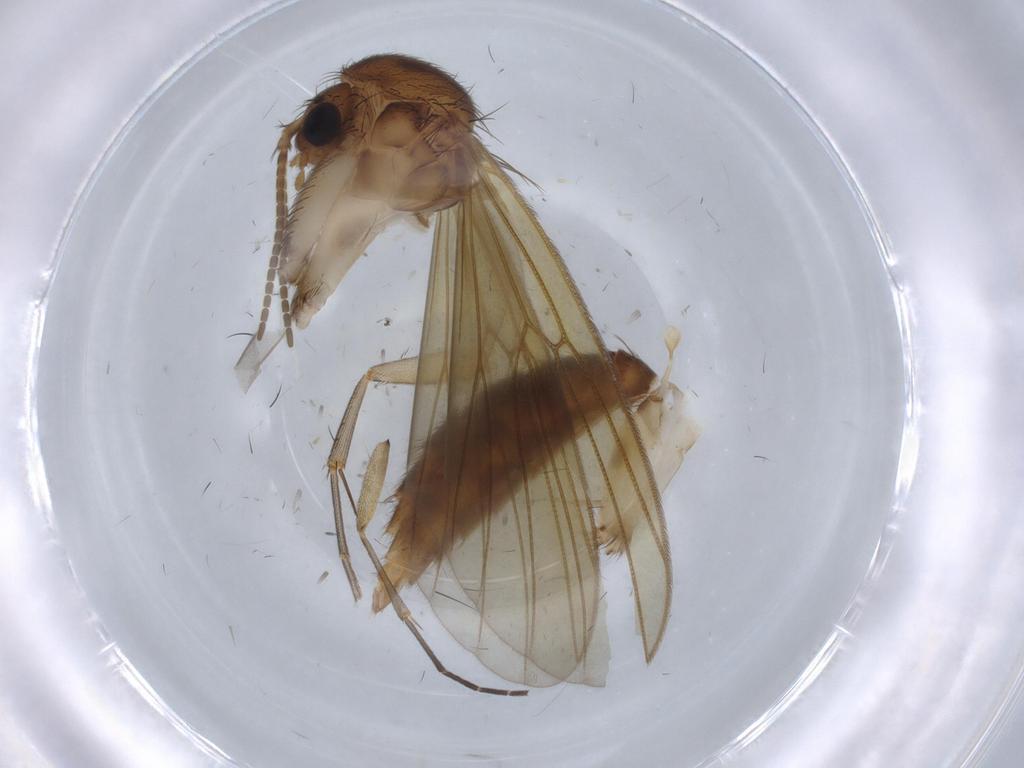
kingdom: Animalia
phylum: Arthropoda
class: Insecta
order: Diptera
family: Mycetophilidae
